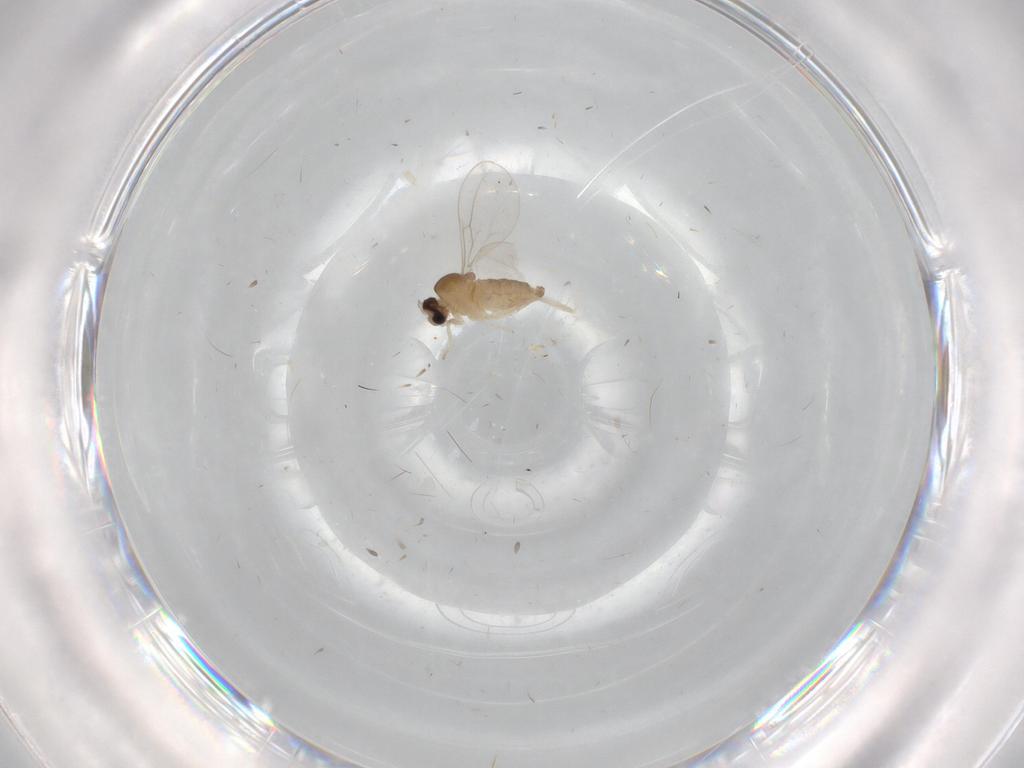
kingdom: Animalia
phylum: Arthropoda
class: Insecta
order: Diptera
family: Cecidomyiidae
